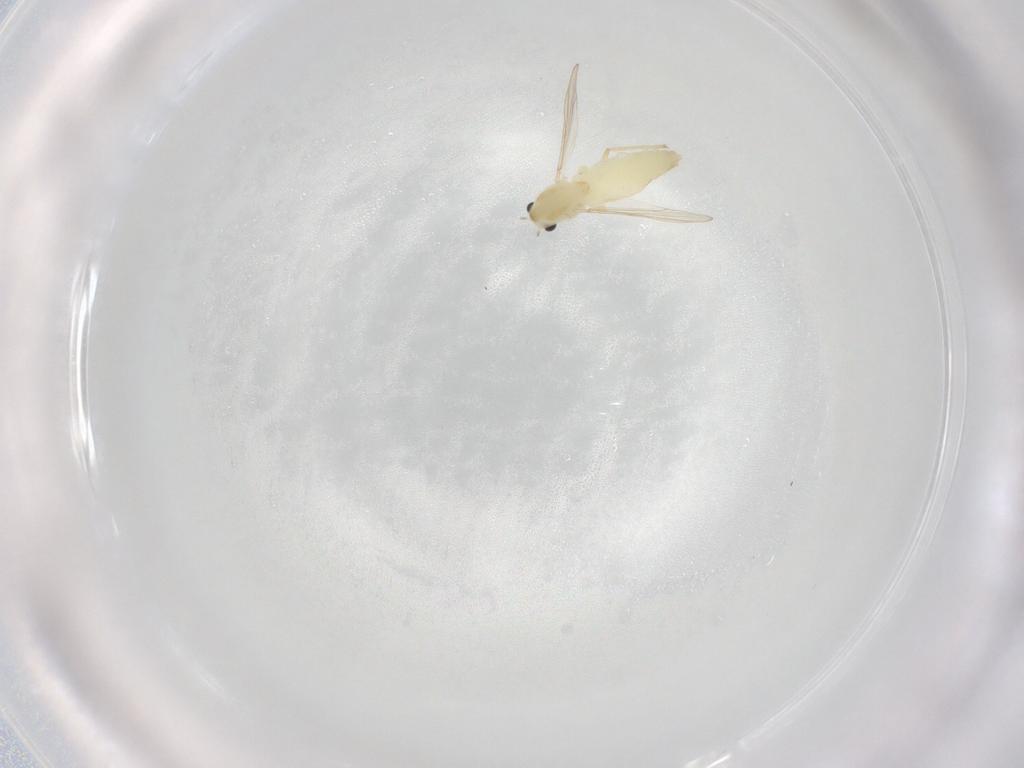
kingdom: Animalia
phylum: Arthropoda
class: Insecta
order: Diptera
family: Chironomidae
